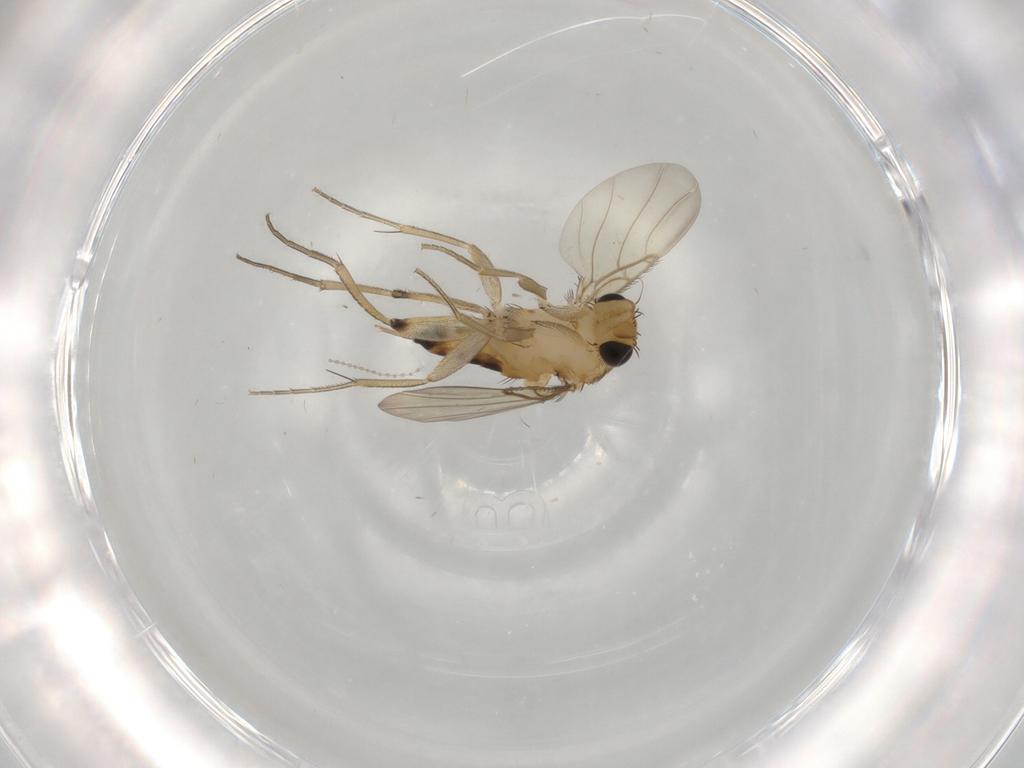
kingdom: Animalia
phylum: Arthropoda
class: Insecta
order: Diptera
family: Phoridae
